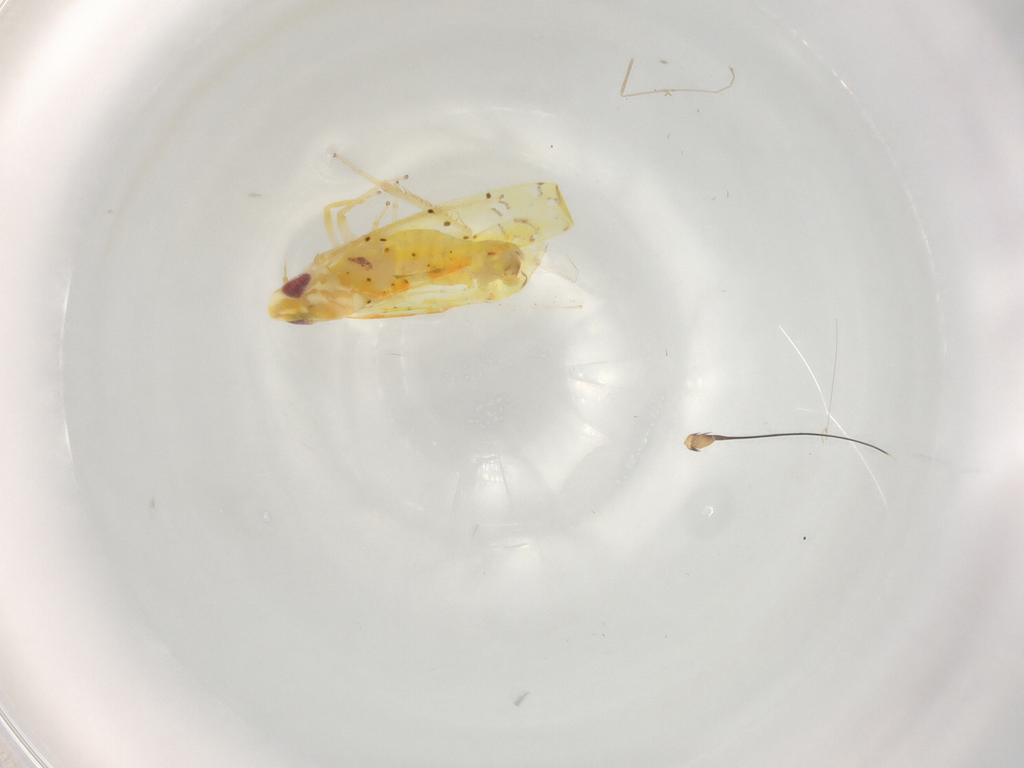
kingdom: Animalia
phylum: Arthropoda
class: Insecta
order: Hemiptera
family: Cicadellidae
